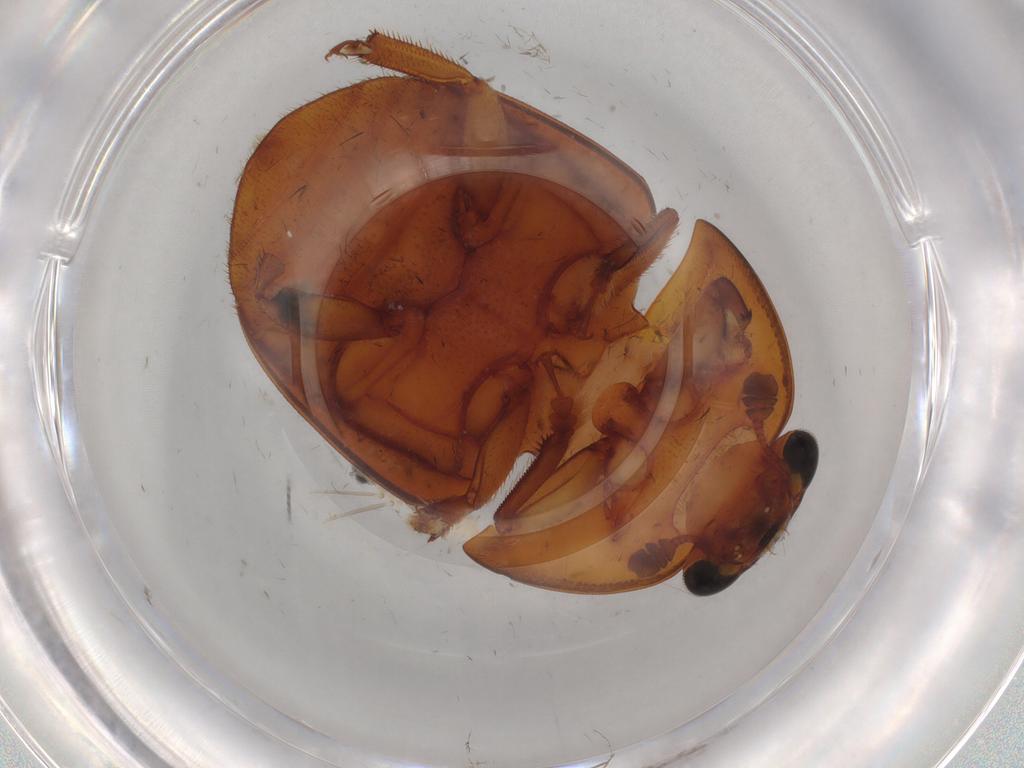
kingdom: Animalia
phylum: Arthropoda
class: Insecta
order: Coleoptera
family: Nitidulidae
